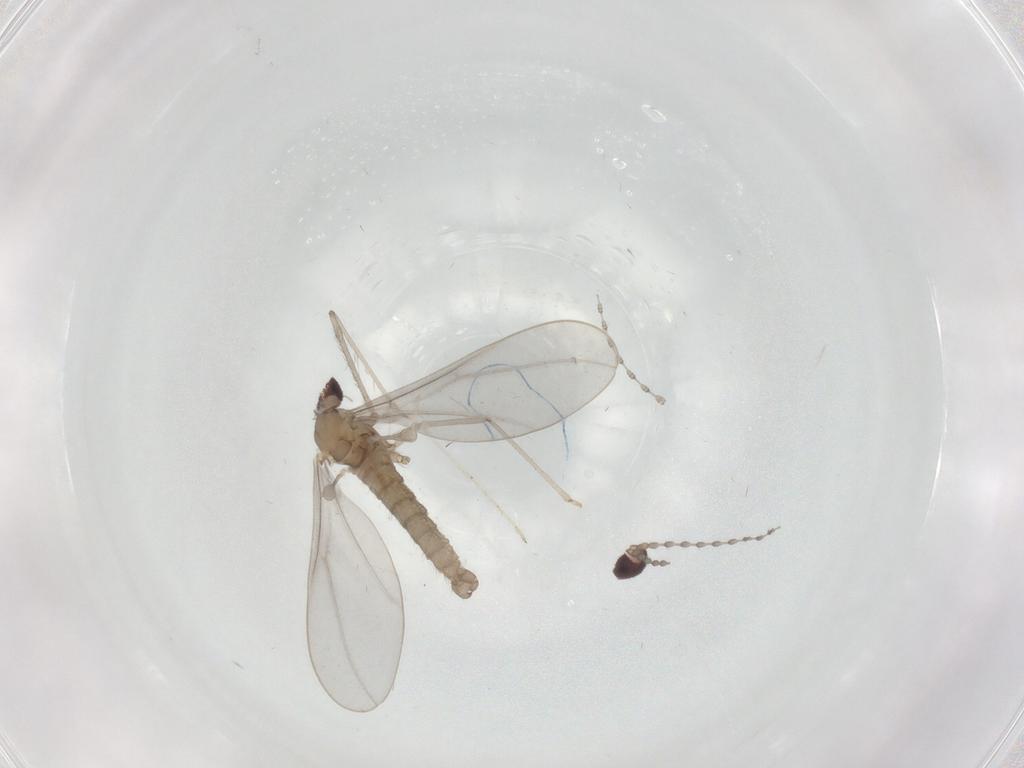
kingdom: Animalia
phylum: Arthropoda
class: Insecta
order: Diptera
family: Cecidomyiidae
